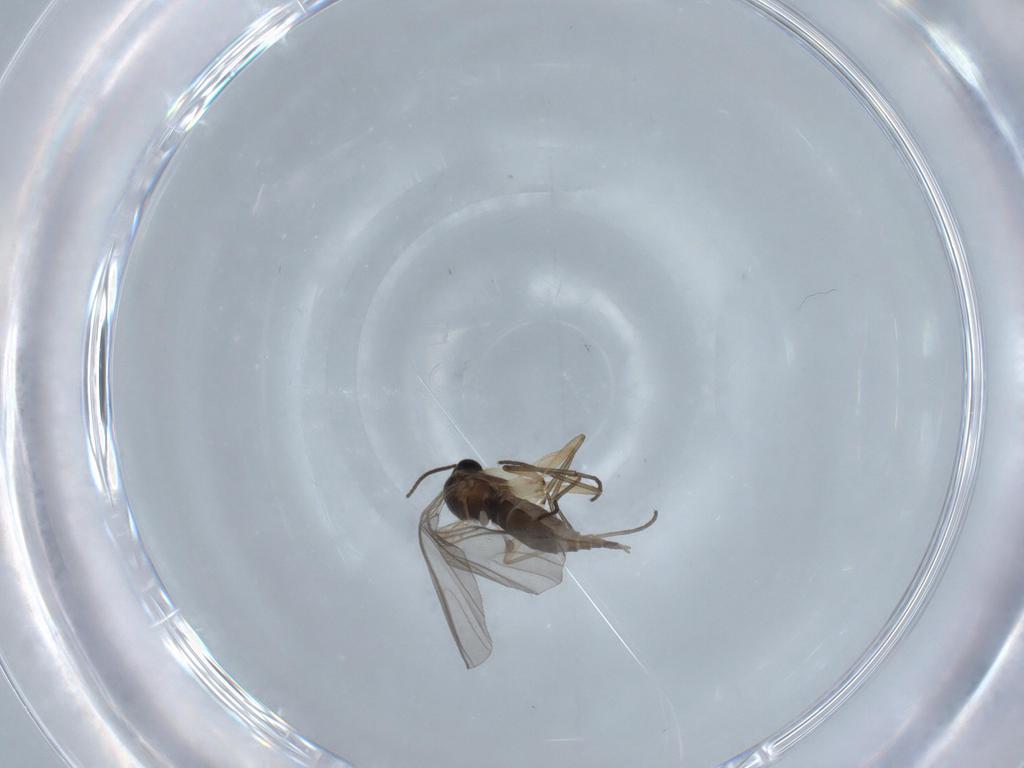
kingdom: Animalia
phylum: Arthropoda
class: Insecta
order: Diptera
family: Sciaridae
